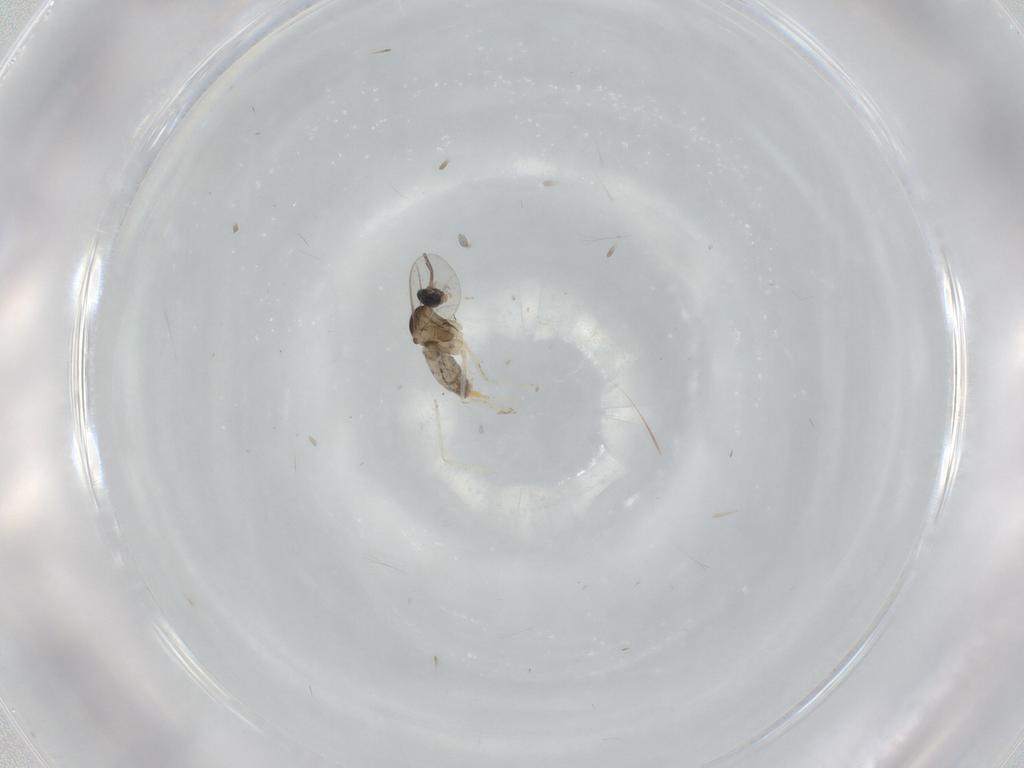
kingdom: Animalia
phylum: Arthropoda
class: Insecta
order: Diptera
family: Cecidomyiidae
